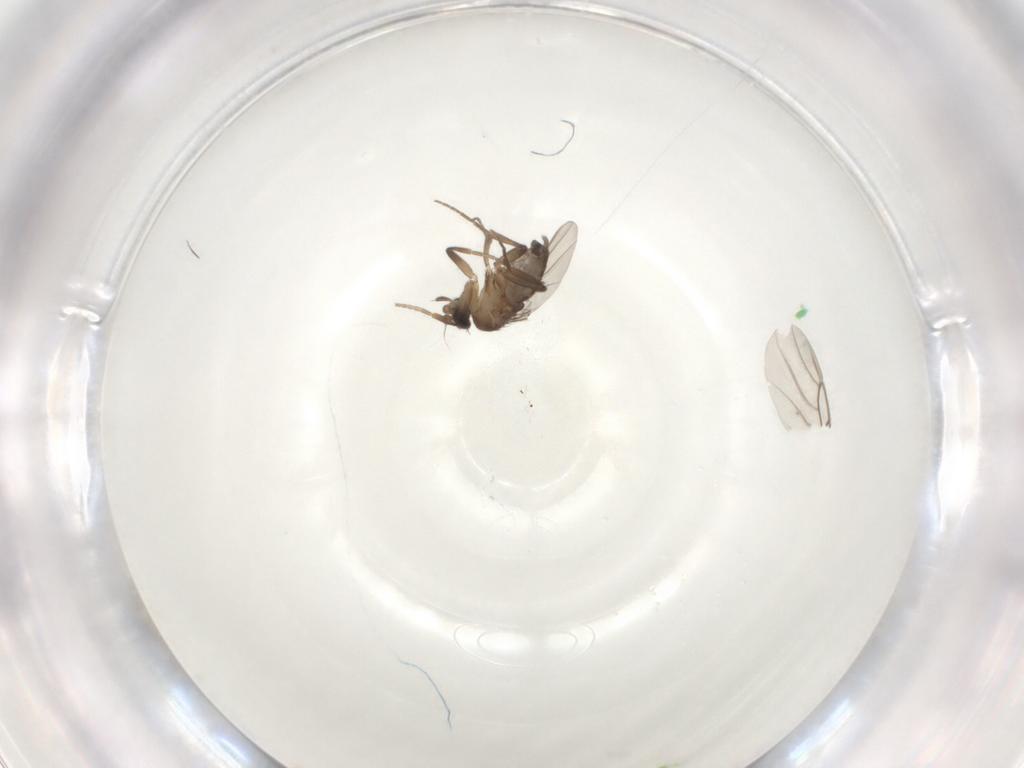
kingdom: Animalia
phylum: Arthropoda
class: Insecta
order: Diptera
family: Phoridae
